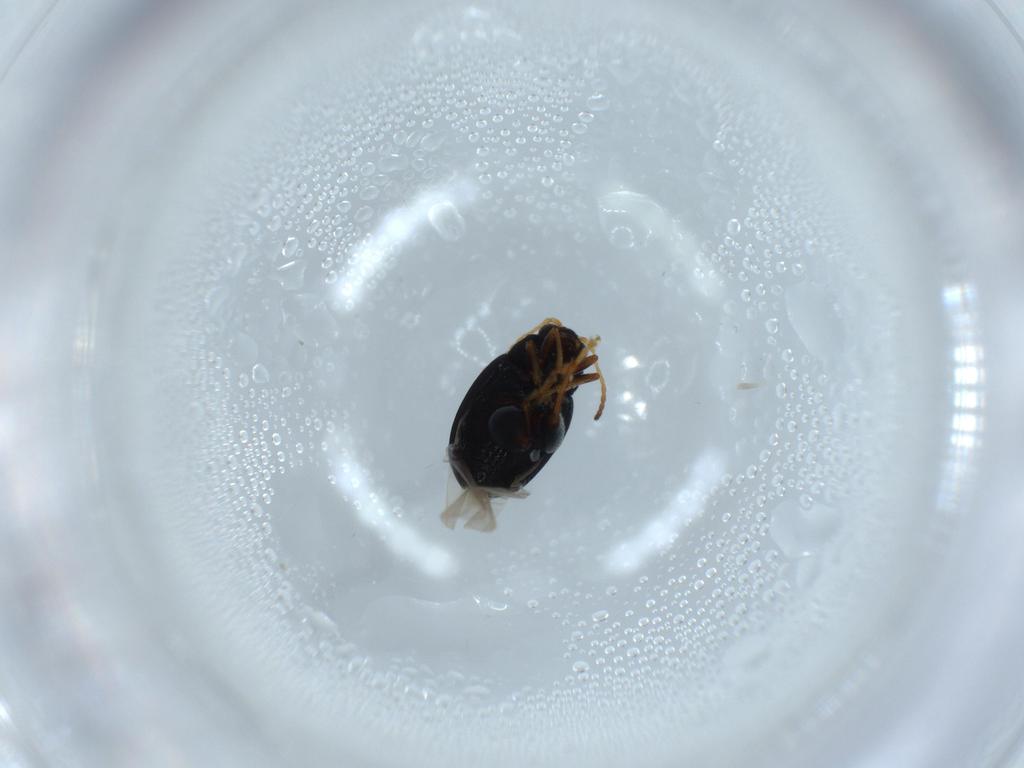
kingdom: Animalia
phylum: Arthropoda
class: Insecta
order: Coleoptera
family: Chrysomelidae
